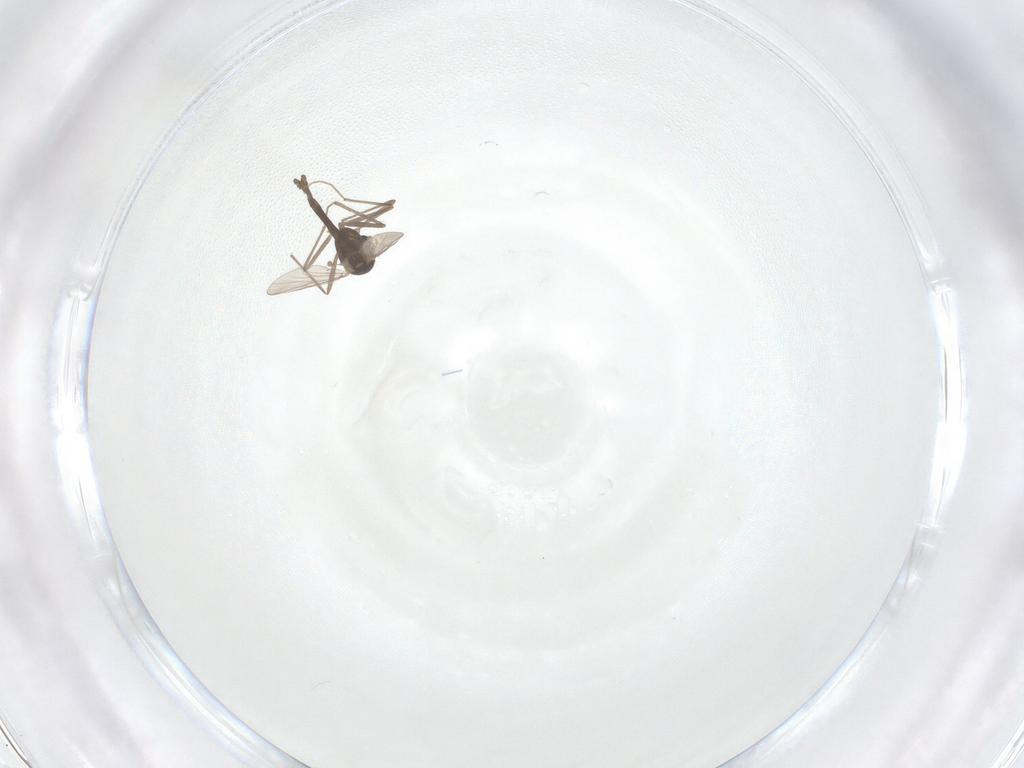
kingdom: Animalia
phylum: Arthropoda
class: Insecta
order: Diptera
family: Chironomidae
